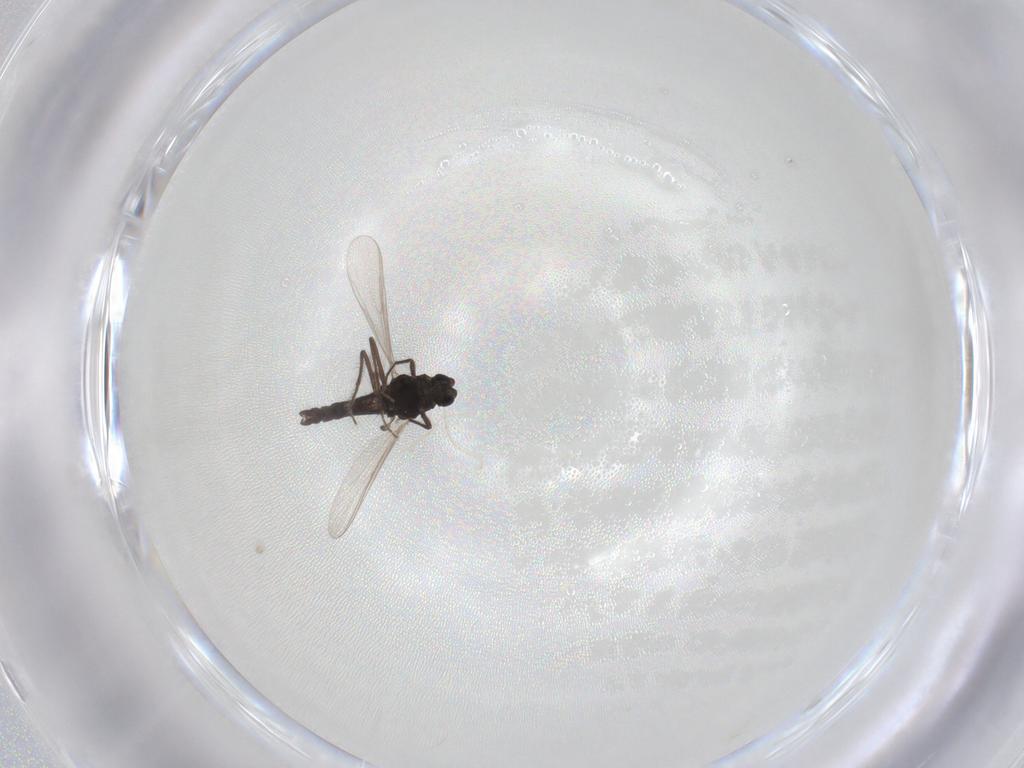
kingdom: Animalia
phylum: Arthropoda
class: Insecta
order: Diptera
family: Chironomidae
